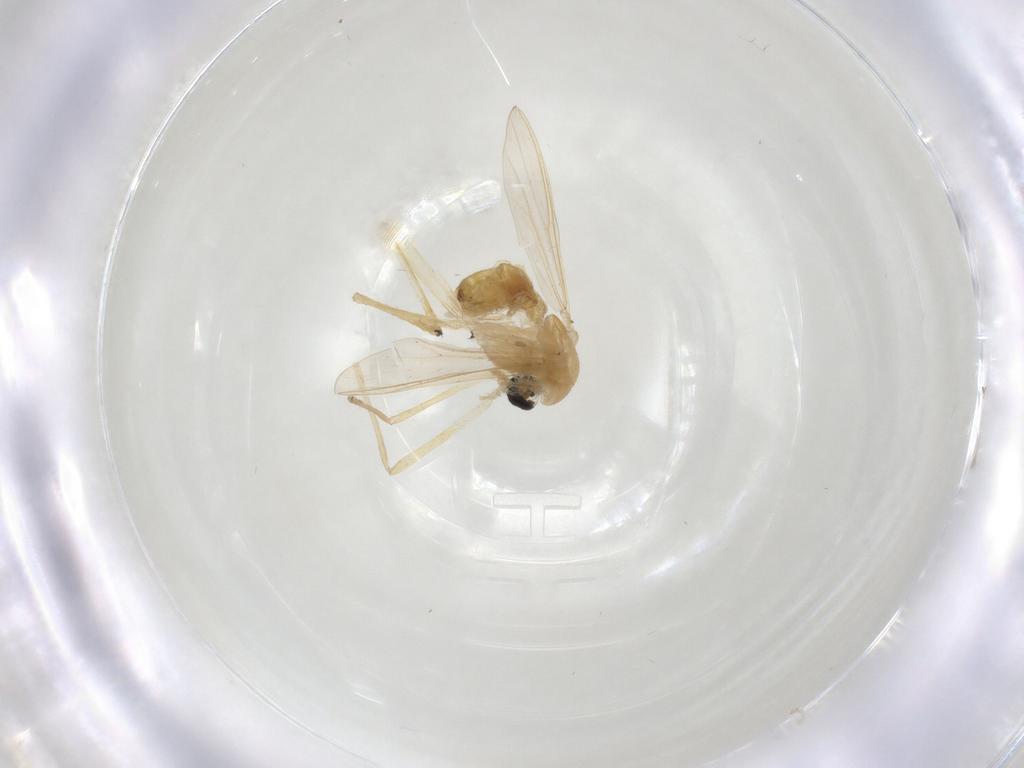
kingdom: Animalia
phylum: Arthropoda
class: Insecta
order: Diptera
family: Chironomidae
